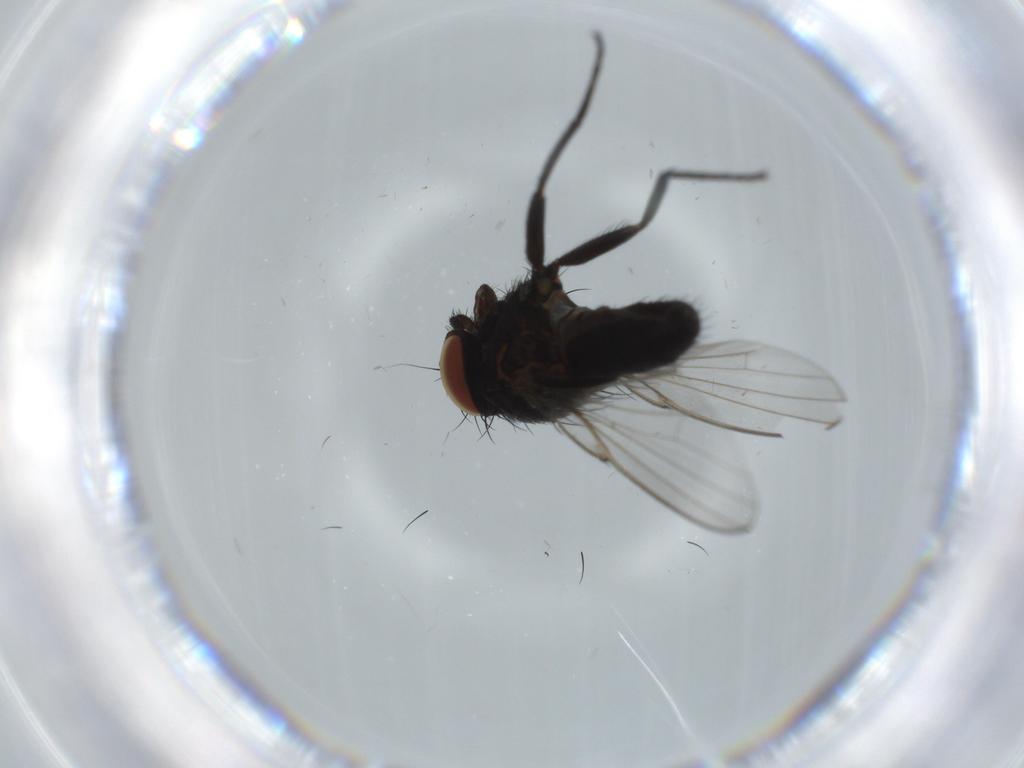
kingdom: Animalia
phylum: Arthropoda
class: Insecta
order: Diptera
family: Milichiidae
